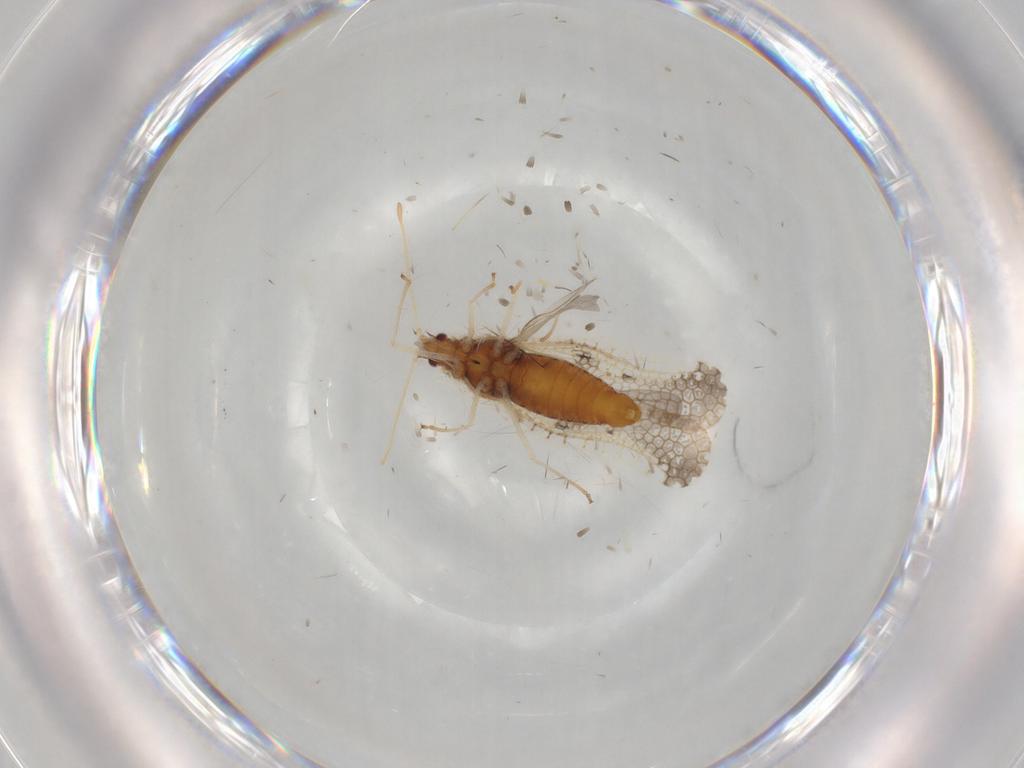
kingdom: Animalia
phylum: Arthropoda
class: Insecta
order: Hemiptera
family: Tingidae
